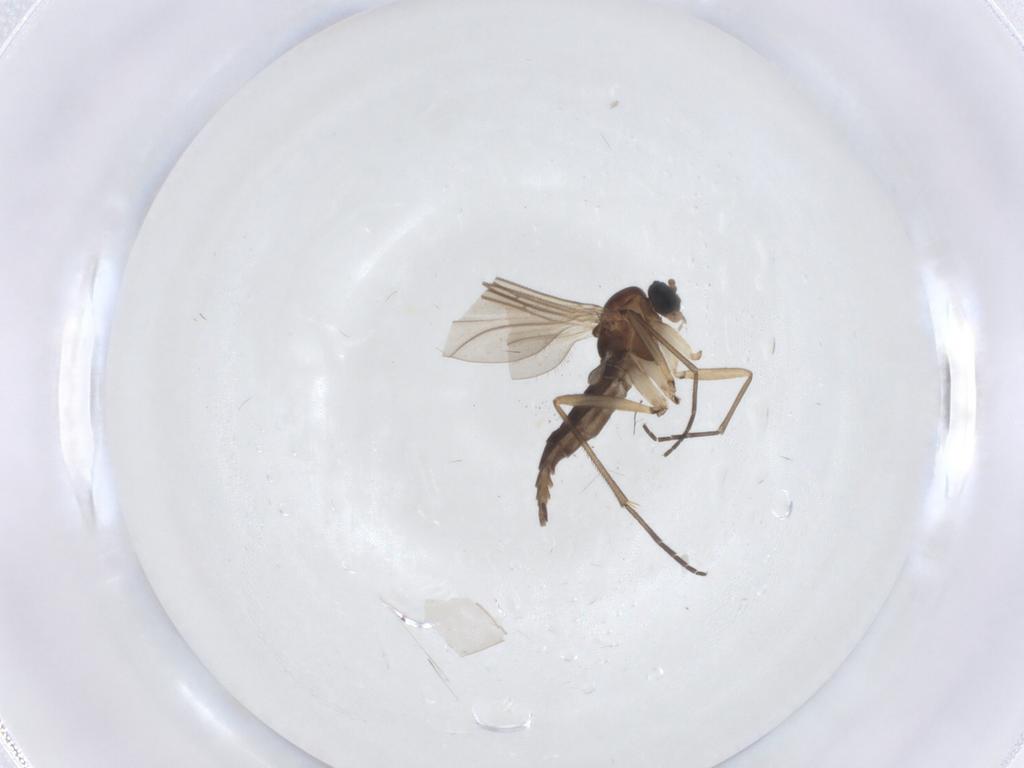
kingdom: Animalia
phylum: Arthropoda
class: Insecta
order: Diptera
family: Sciaridae
